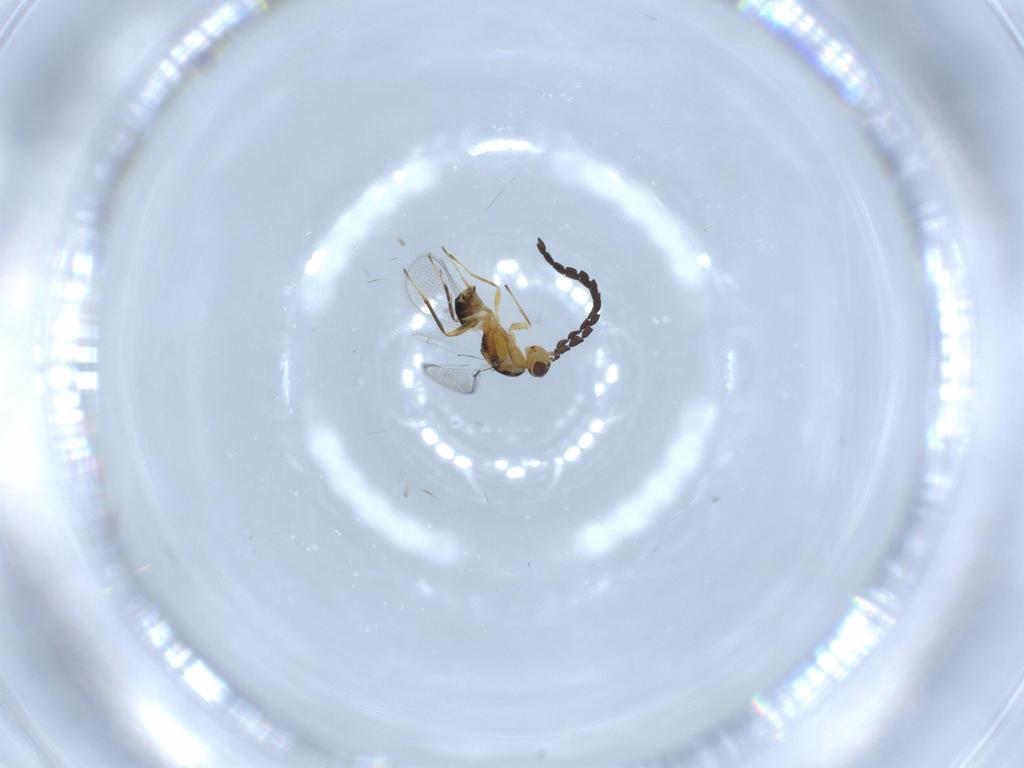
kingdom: Animalia
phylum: Arthropoda
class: Insecta
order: Hymenoptera
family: Mymaridae
